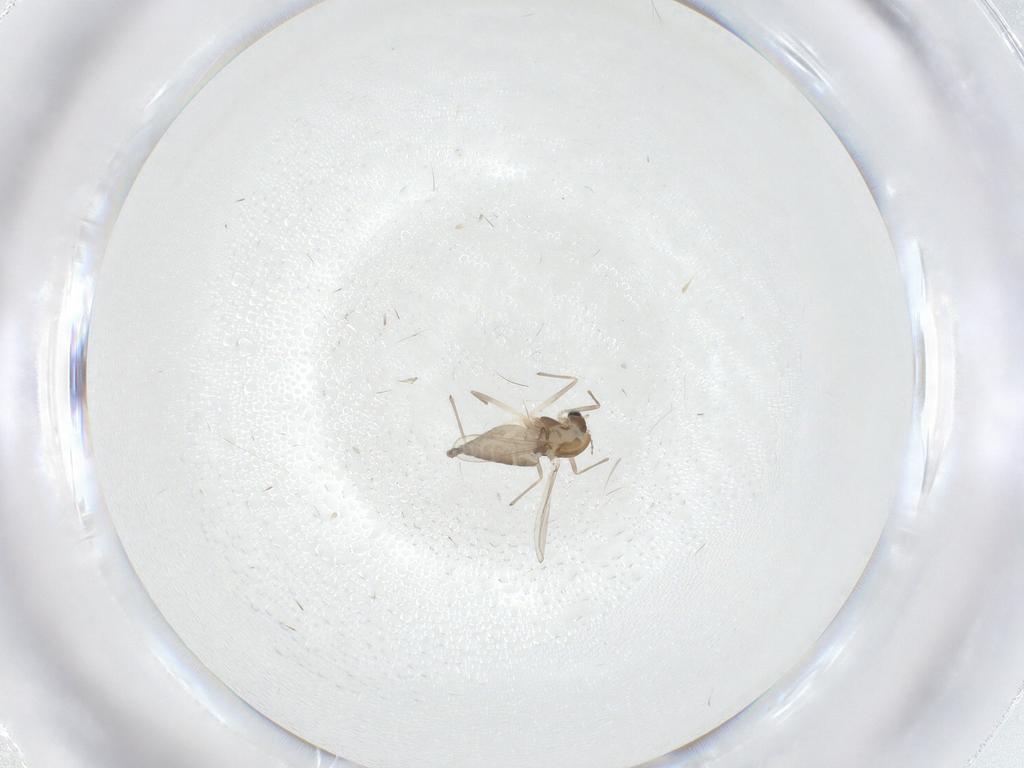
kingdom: Animalia
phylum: Arthropoda
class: Insecta
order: Diptera
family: Chironomidae
